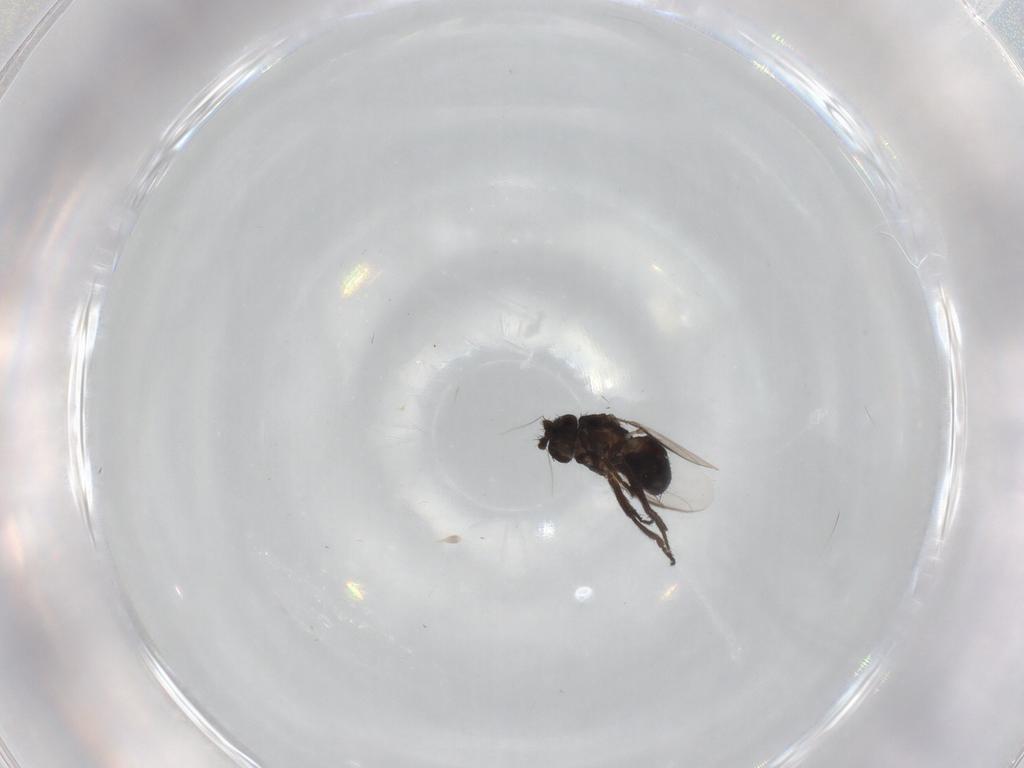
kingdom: Animalia
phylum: Arthropoda
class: Insecta
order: Diptera
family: Sphaeroceridae
